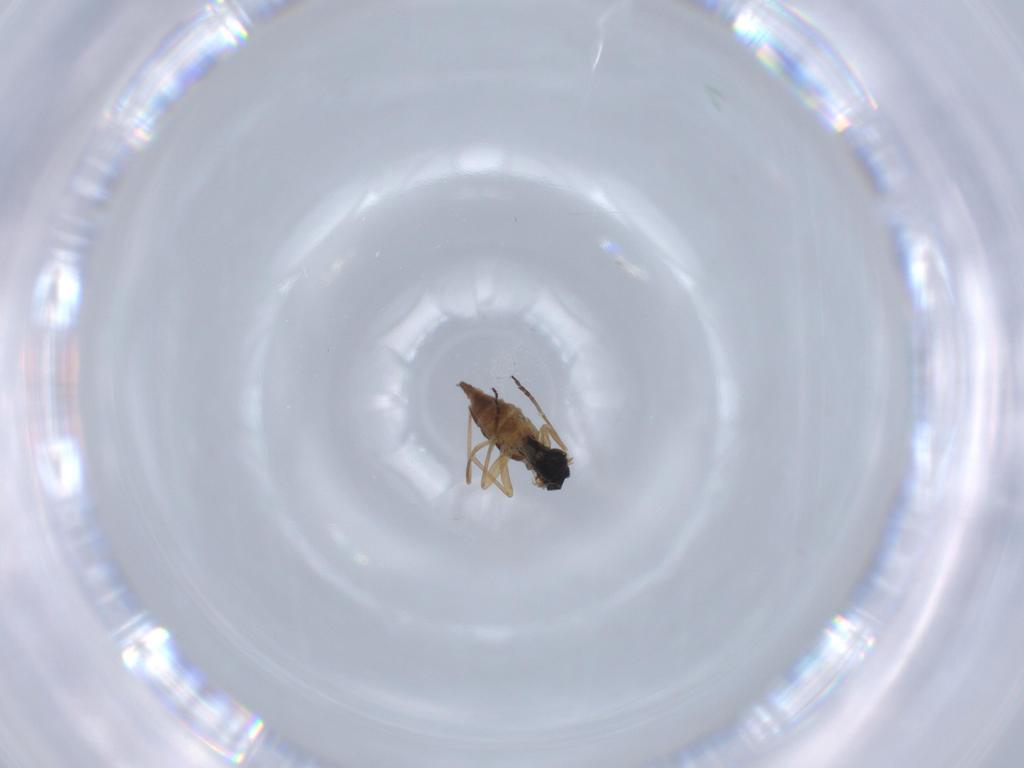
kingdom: Animalia
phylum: Arthropoda
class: Insecta
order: Diptera
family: Sciaridae
